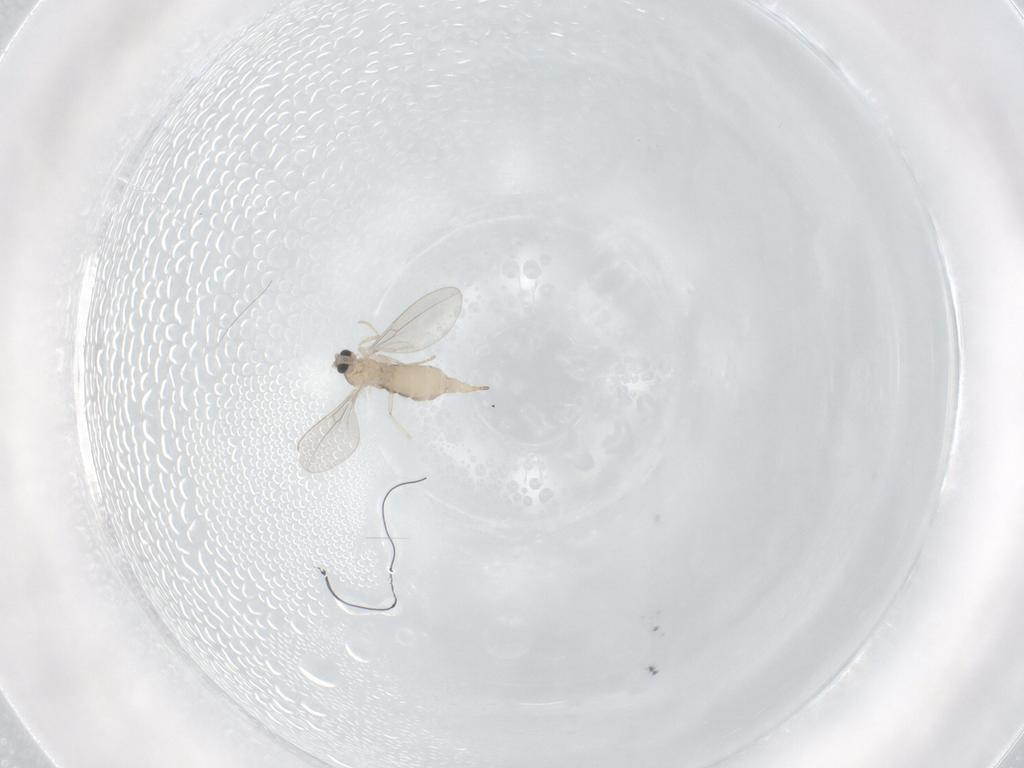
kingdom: Animalia
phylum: Arthropoda
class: Insecta
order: Diptera
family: Cecidomyiidae
